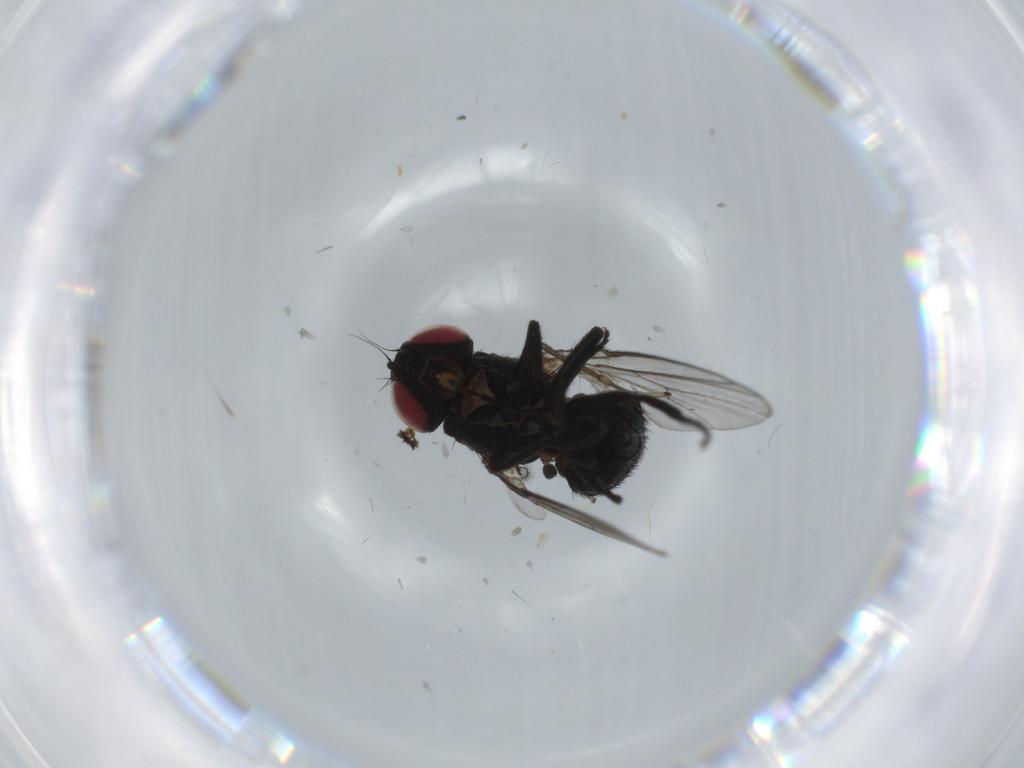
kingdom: Animalia
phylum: Arthropoda
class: Insecta
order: Diptera
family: Agromyzidae
